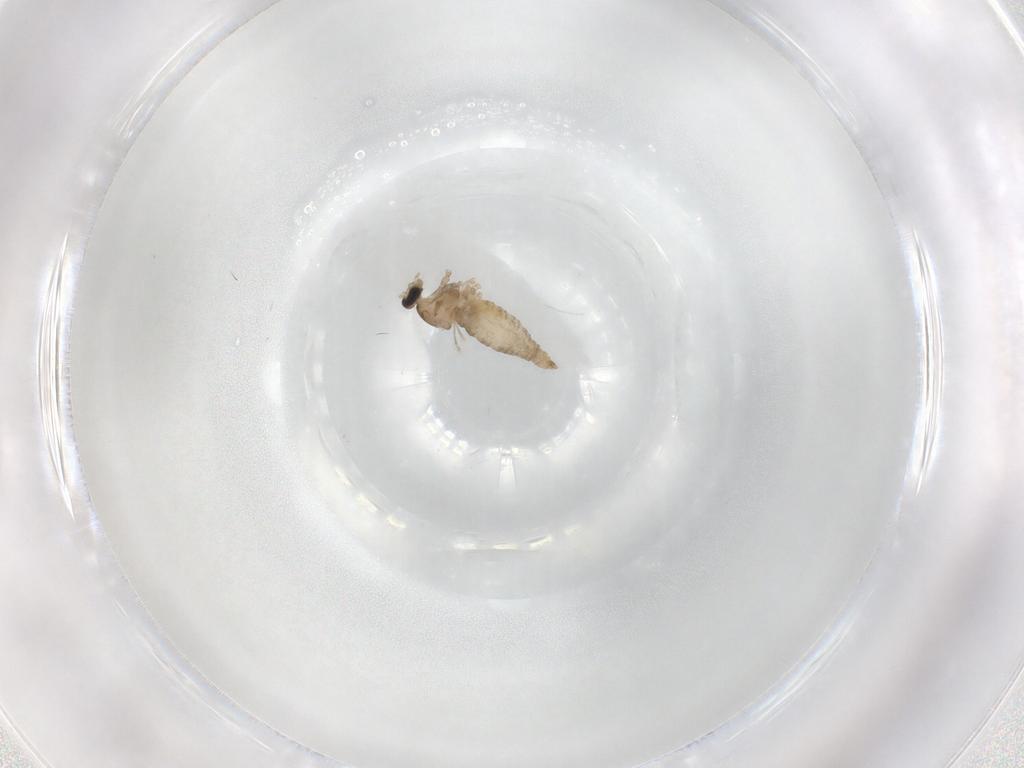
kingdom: Animalia
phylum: Arthropoda
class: Insecta
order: Diptera
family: Cecidomyiidae
